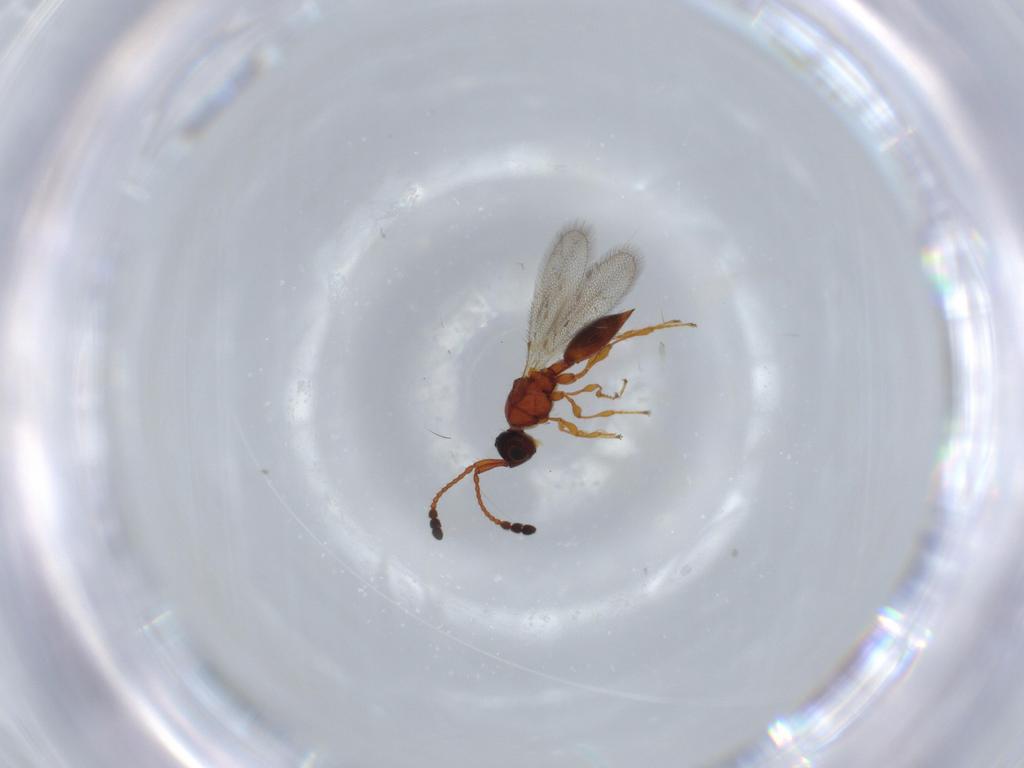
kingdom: Animalia
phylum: Arthropoda
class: Insecta
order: Hymenoptera
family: Diapriidae
